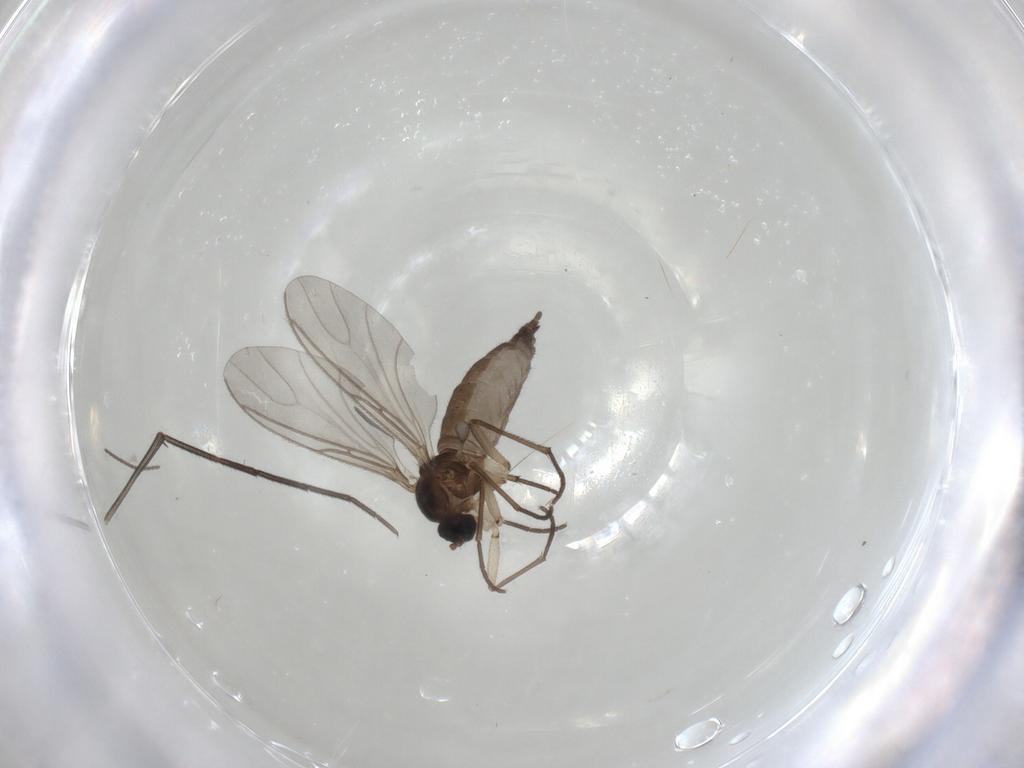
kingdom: Animalia
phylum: Arthropoda
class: Insecta
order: Diptera
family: Sciaridae
